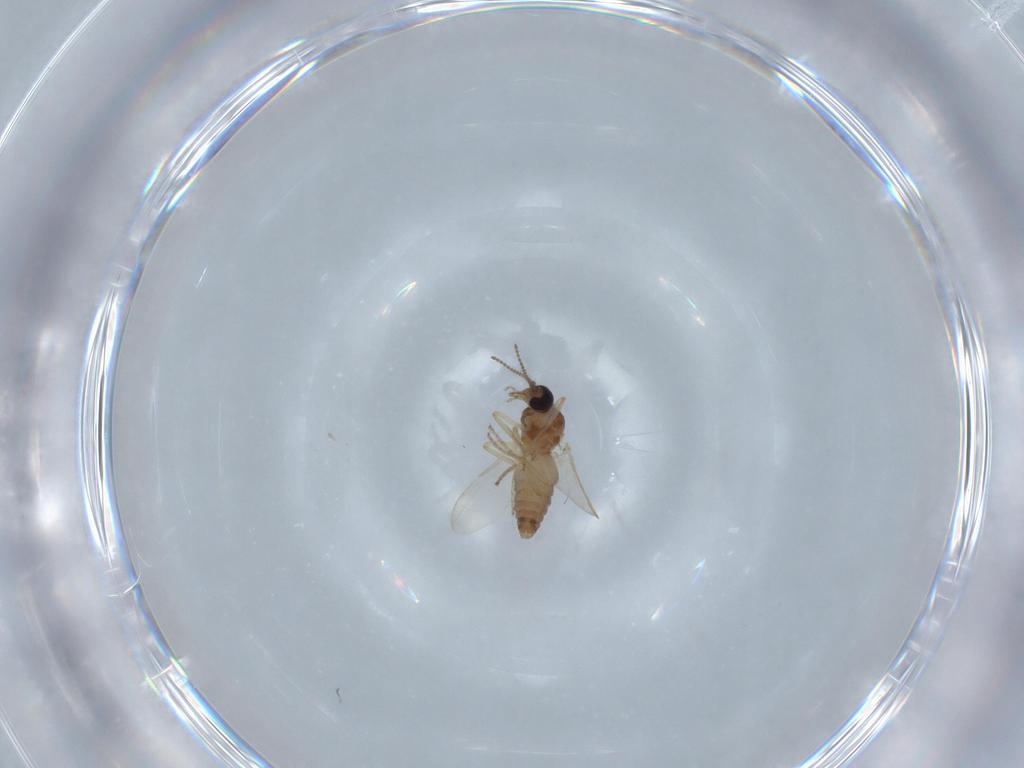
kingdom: Animalia
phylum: Arthropoda
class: Insecta
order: Diptera
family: Ceratopogonidae
